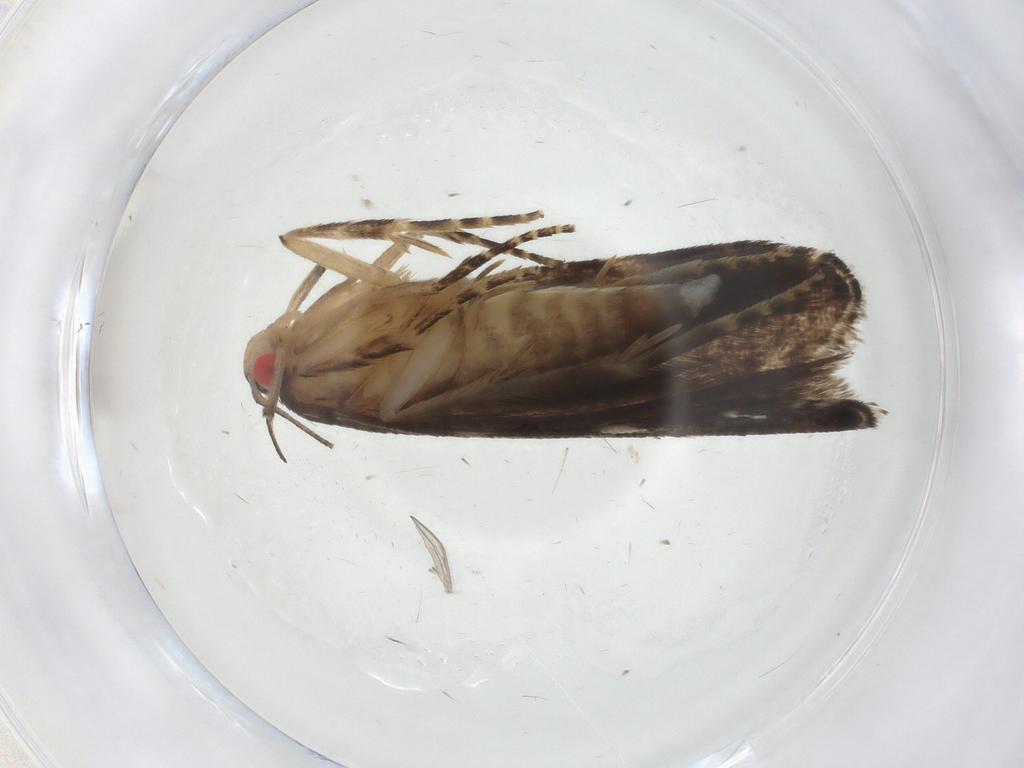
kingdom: Animalia
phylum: Arthropoda
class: Insecta
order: Lepidoptera
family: Gelechiidae
